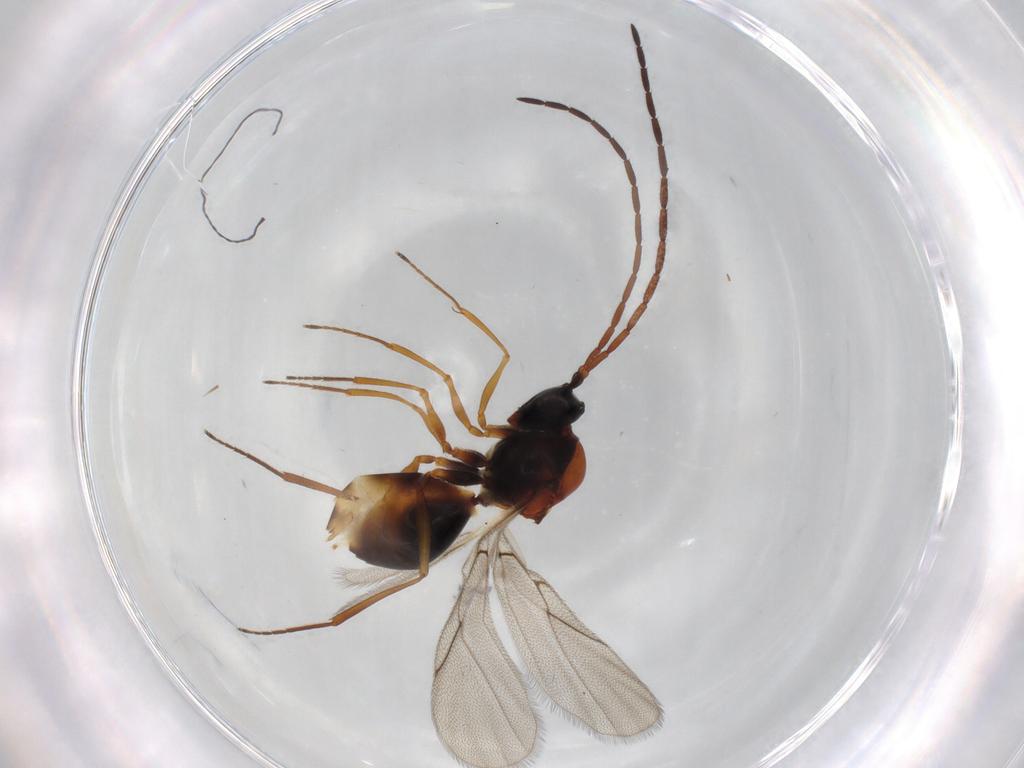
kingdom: Animalia
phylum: Arthropoda
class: Insecta
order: Hymenoptera
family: Figitidae
